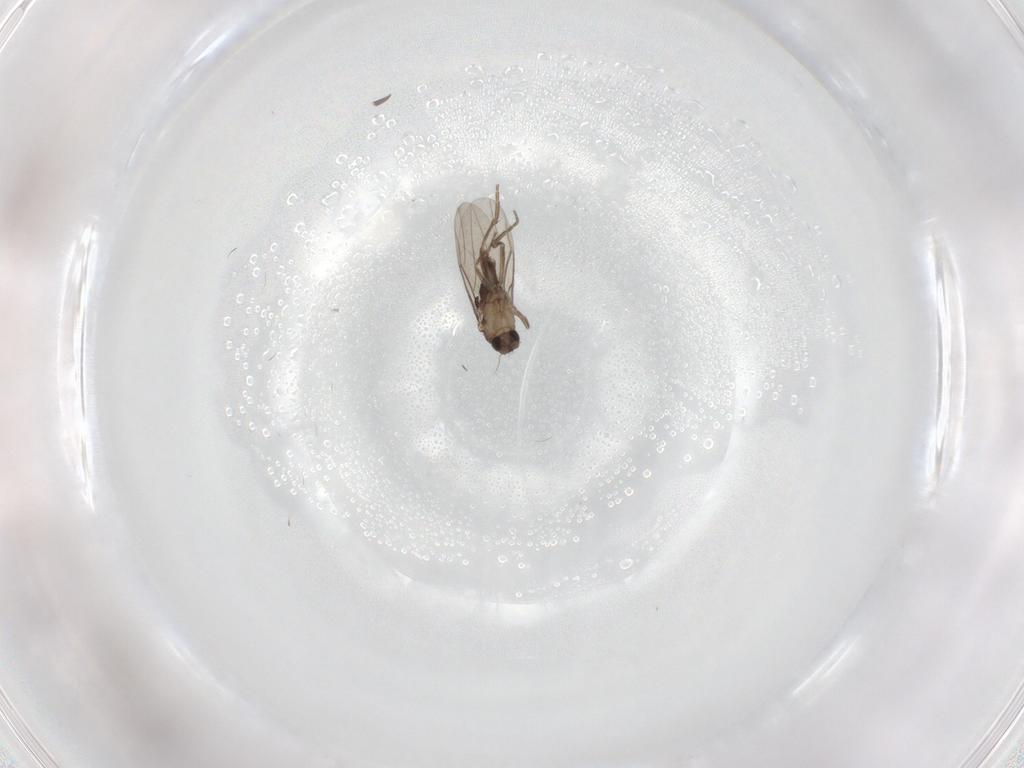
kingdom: Animalia
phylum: Arthropoda
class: Insecta
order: Diptera
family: Phoridae
